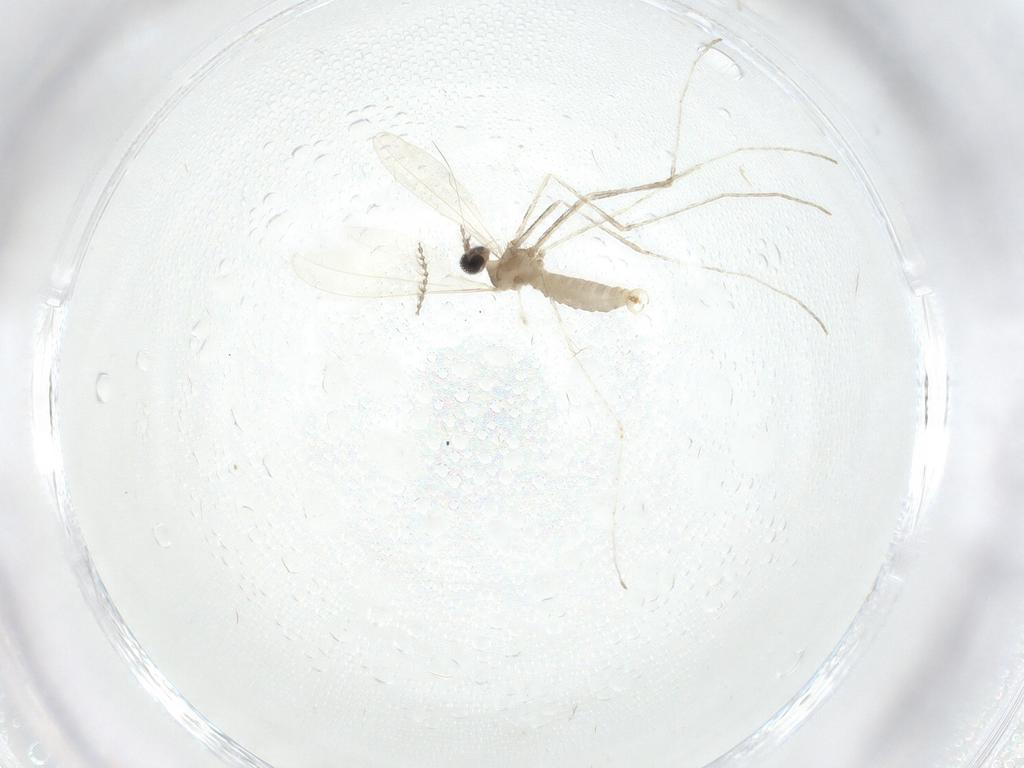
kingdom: Animalia
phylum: Arthropoda
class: Insecta
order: Diptera
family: Cecidomyiidae
